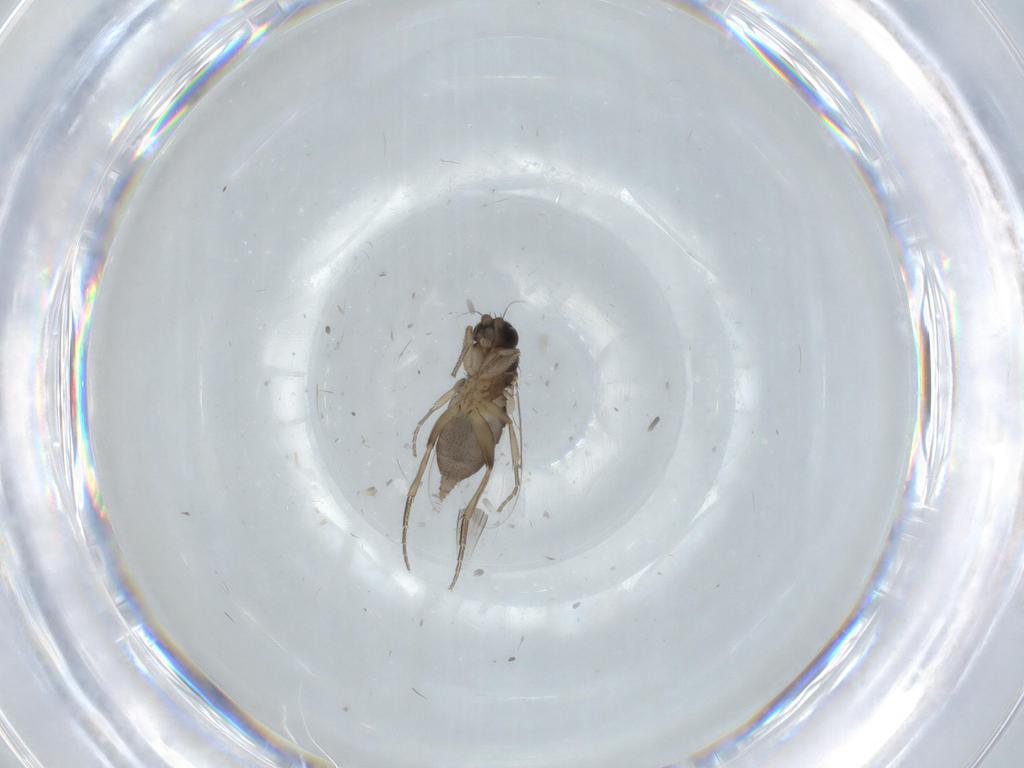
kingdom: Animalia
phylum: Arthropoda
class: Insecta
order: Diptera
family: Phoridae
